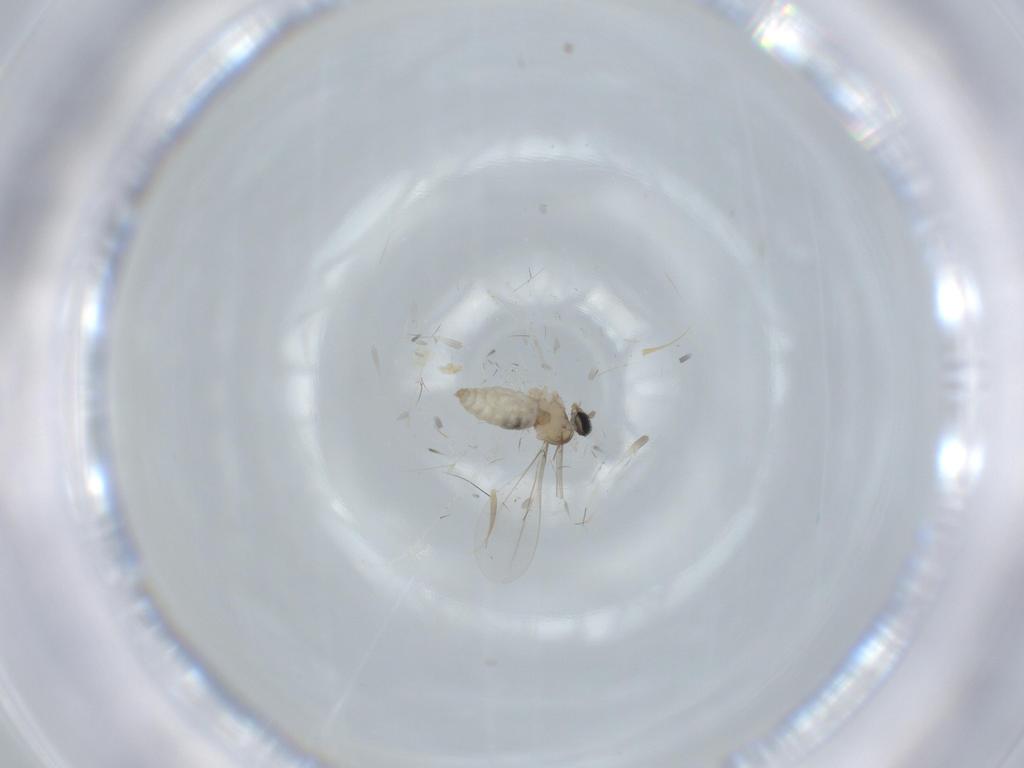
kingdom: Animalia
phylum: Arthropoda
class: Insecta
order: Diptera
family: Cecidomyiidae
